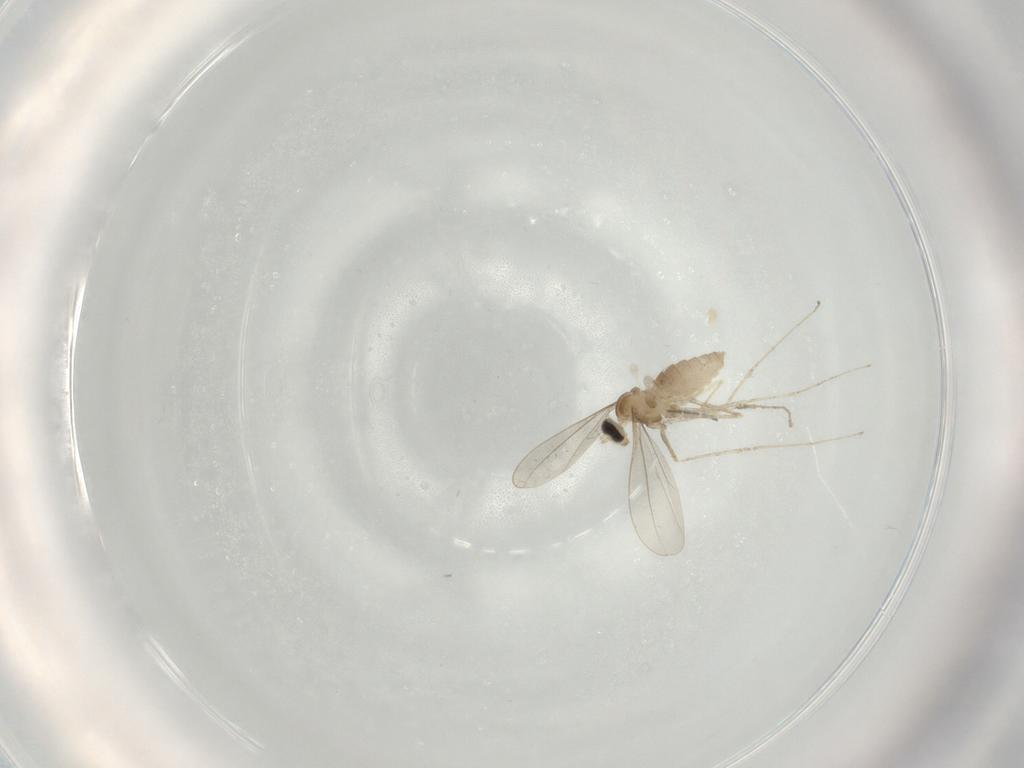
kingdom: Animalia
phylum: Arthropoda
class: Insecta
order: Diptera
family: Cecidomyiidae
